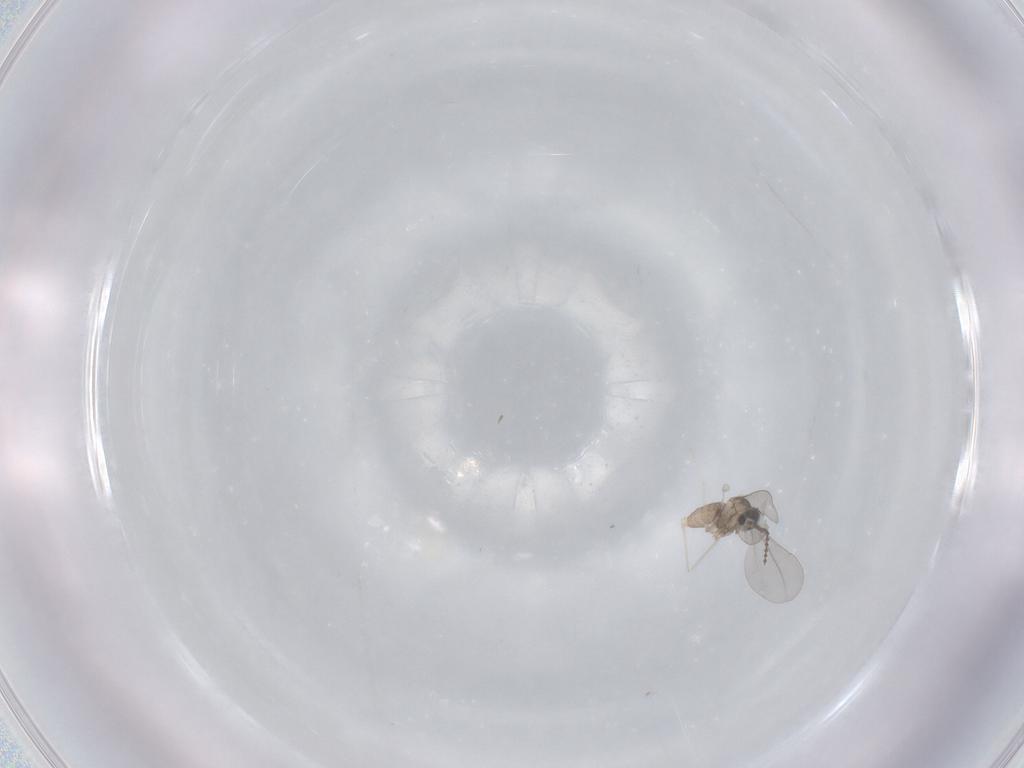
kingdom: Animalia
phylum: Arthropoda
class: Insecta
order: Diptera
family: Cecidomyiidae
